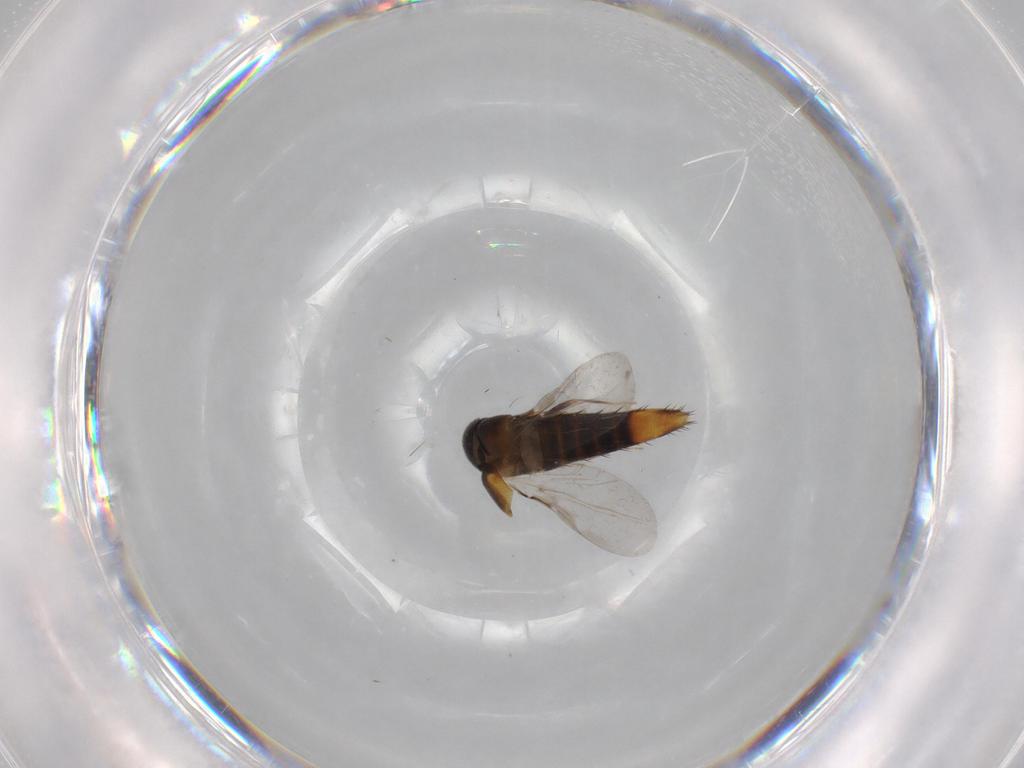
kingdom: Animalia
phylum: Arthropoda
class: Insecta
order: Coleoptera
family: Staphylinidae
